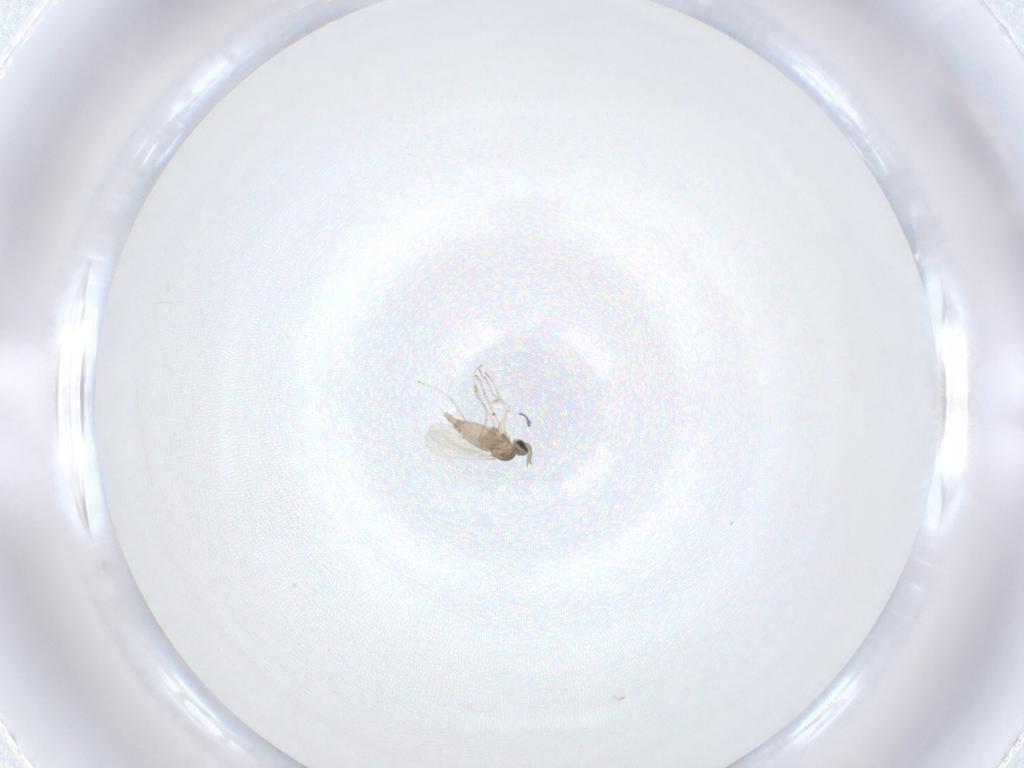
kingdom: Animalia
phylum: Arthropoda
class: Insecta
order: Diptera
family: Cecidomyiidae
